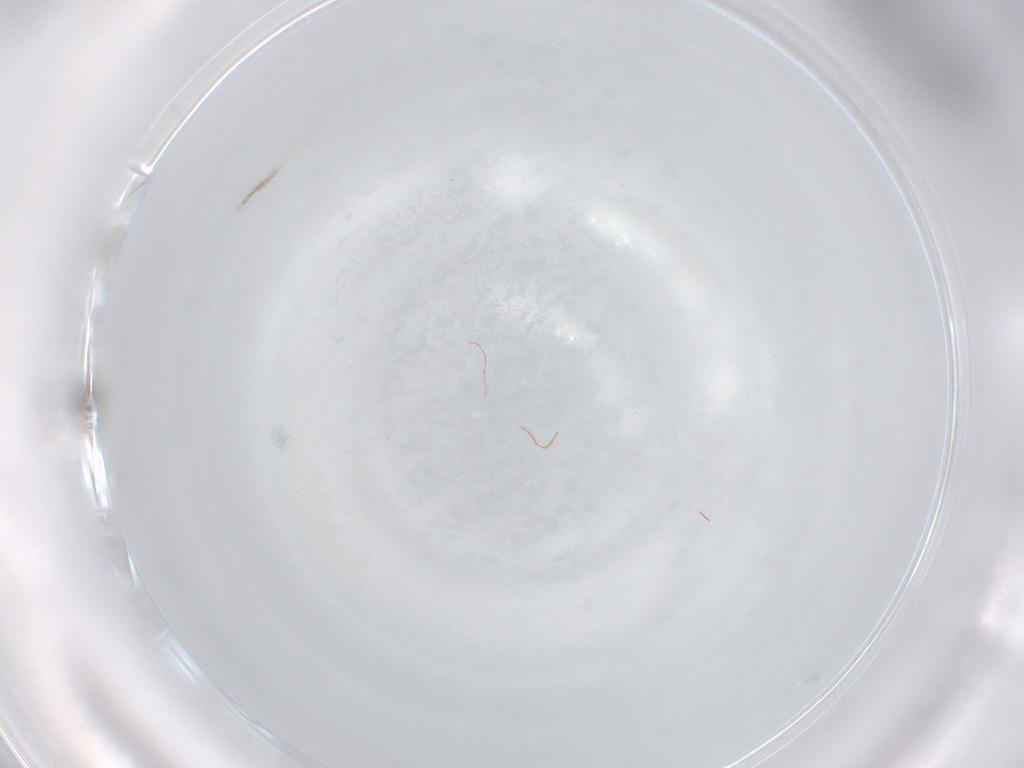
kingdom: Animalia
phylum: Arthropoda
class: Insecta
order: Diptera
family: Cecidomyiidae
